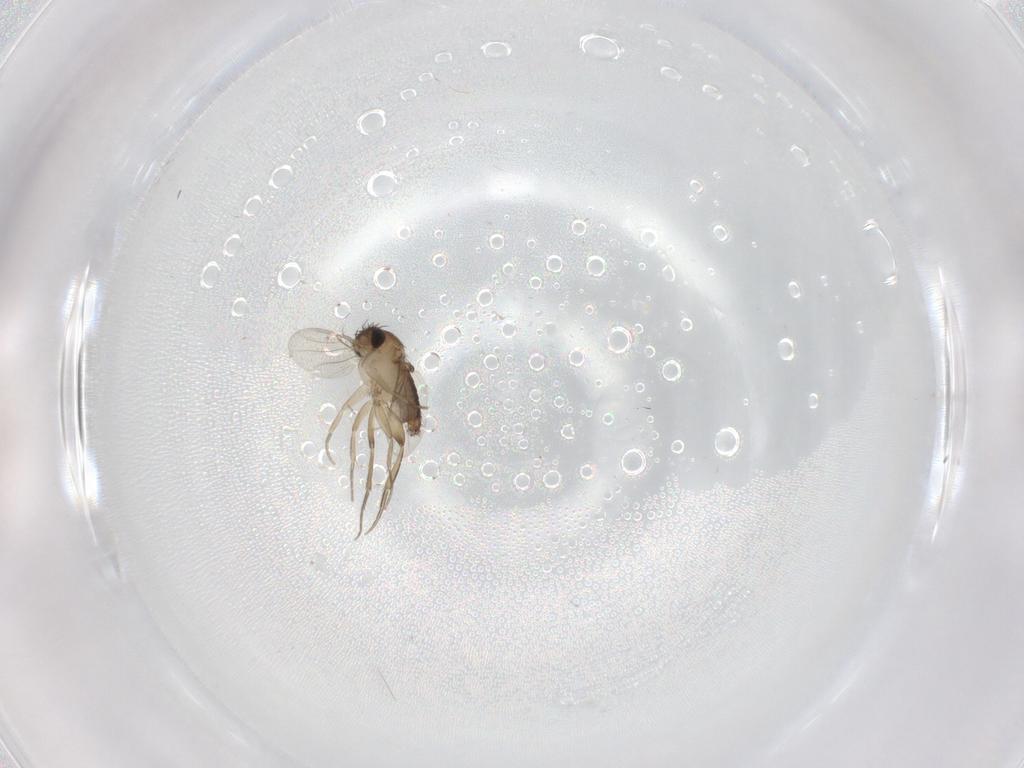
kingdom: Animalia
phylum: Arthropoda
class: Insecta
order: Diptera
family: Phoridae
